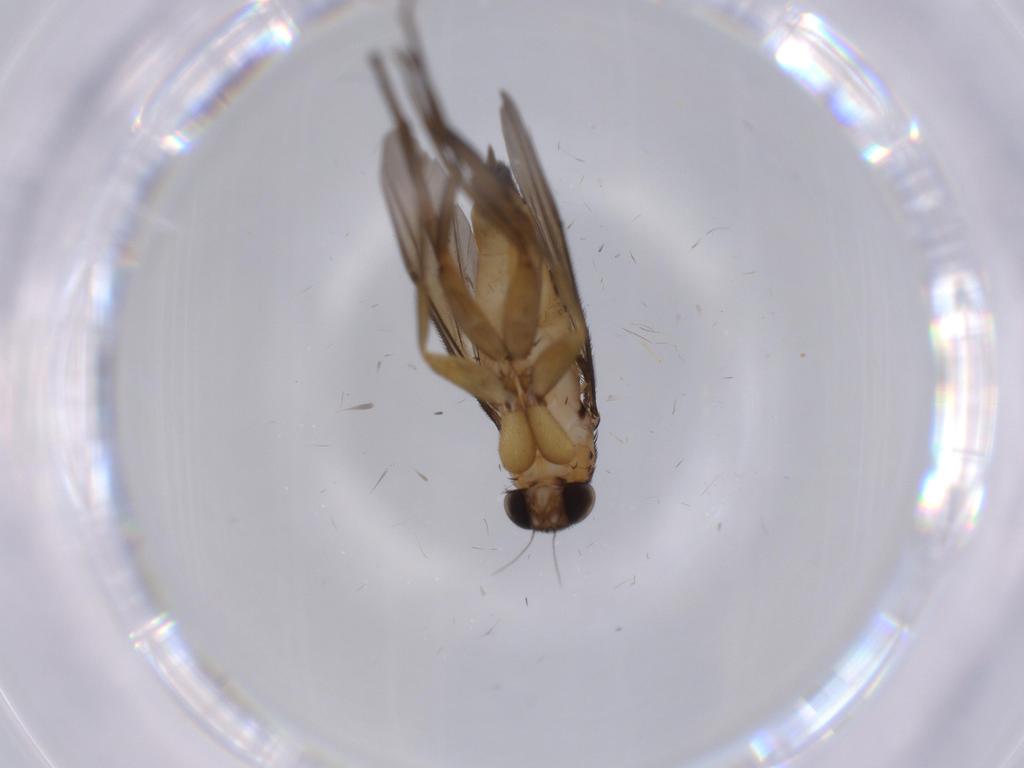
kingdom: Animalia
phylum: Arthropoda
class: Insecta
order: Diptera
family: Phoridae
